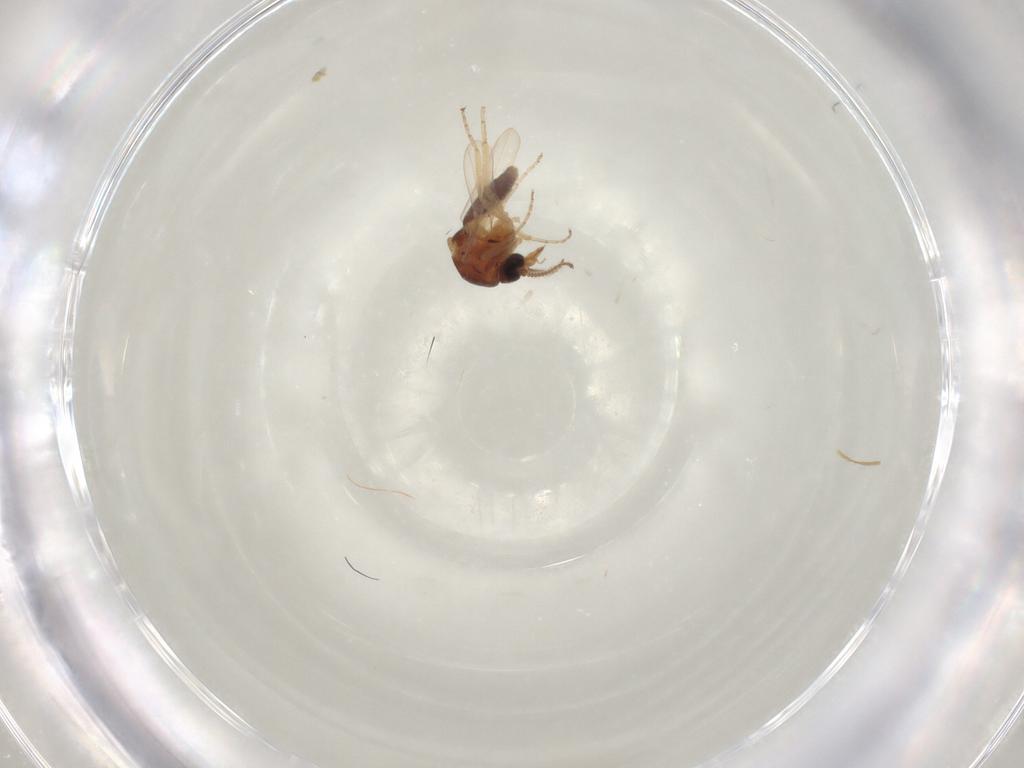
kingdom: Animalia
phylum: Arthropoda
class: Insecta
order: Diptera
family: Ceratopogonidae
